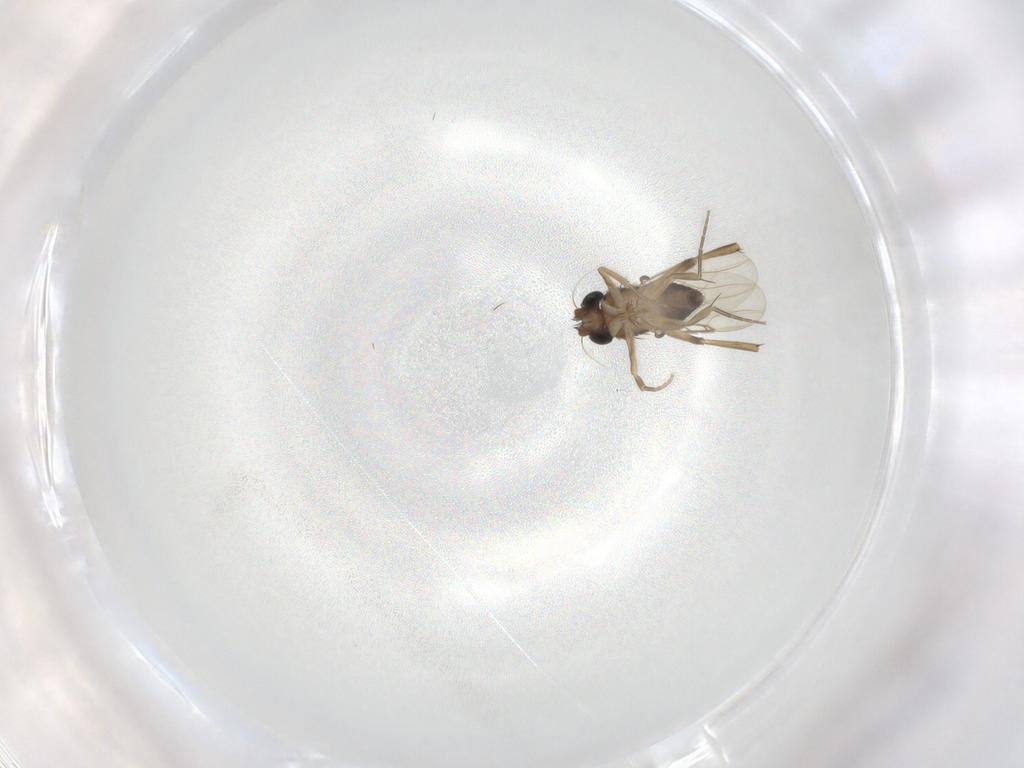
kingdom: Animalia
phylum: Arthropoda
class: Insecta
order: Diptera
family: Phoridae
